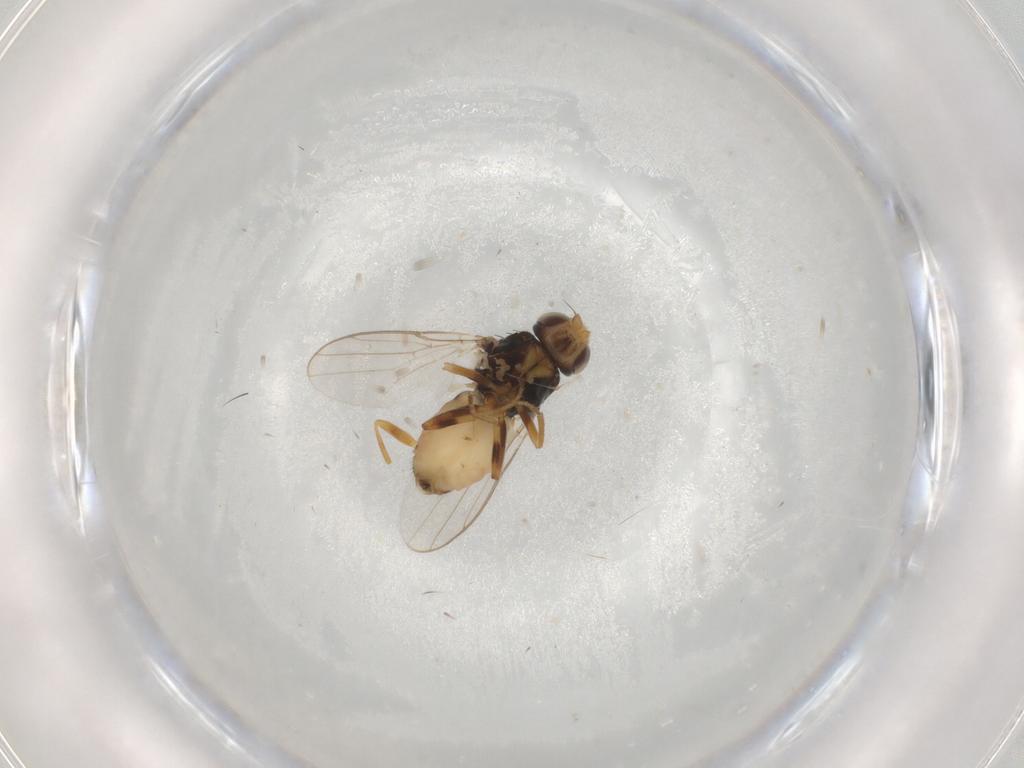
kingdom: Animalia
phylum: Arthropoda
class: Insecta
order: Diptera
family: Chloropidae
